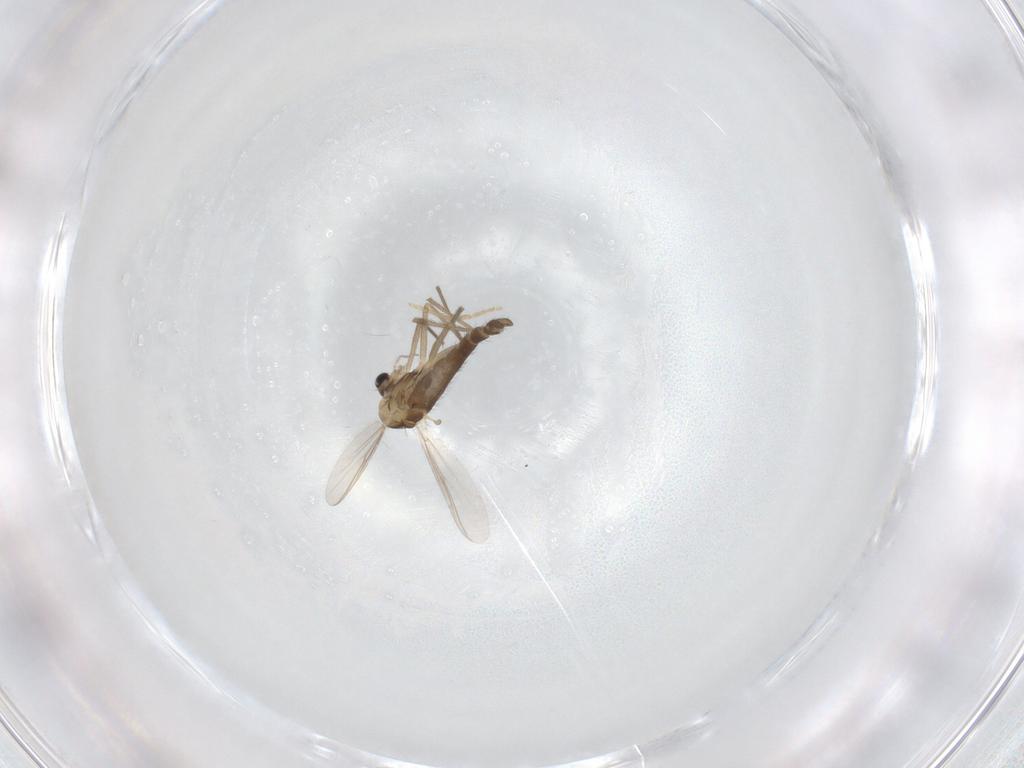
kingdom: Animalia
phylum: Arthropoda
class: Insecta
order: Diptera
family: Chironomidae
